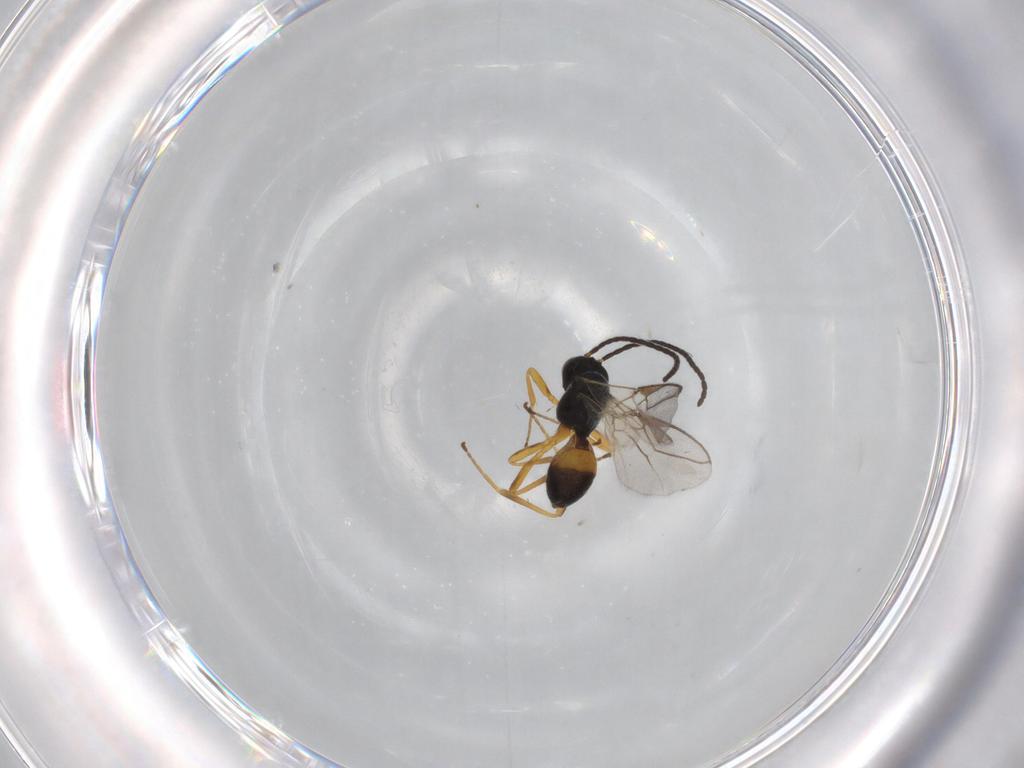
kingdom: Animalia
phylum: Arthropoda
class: Insecta
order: Hymenoptera
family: Braconidae
